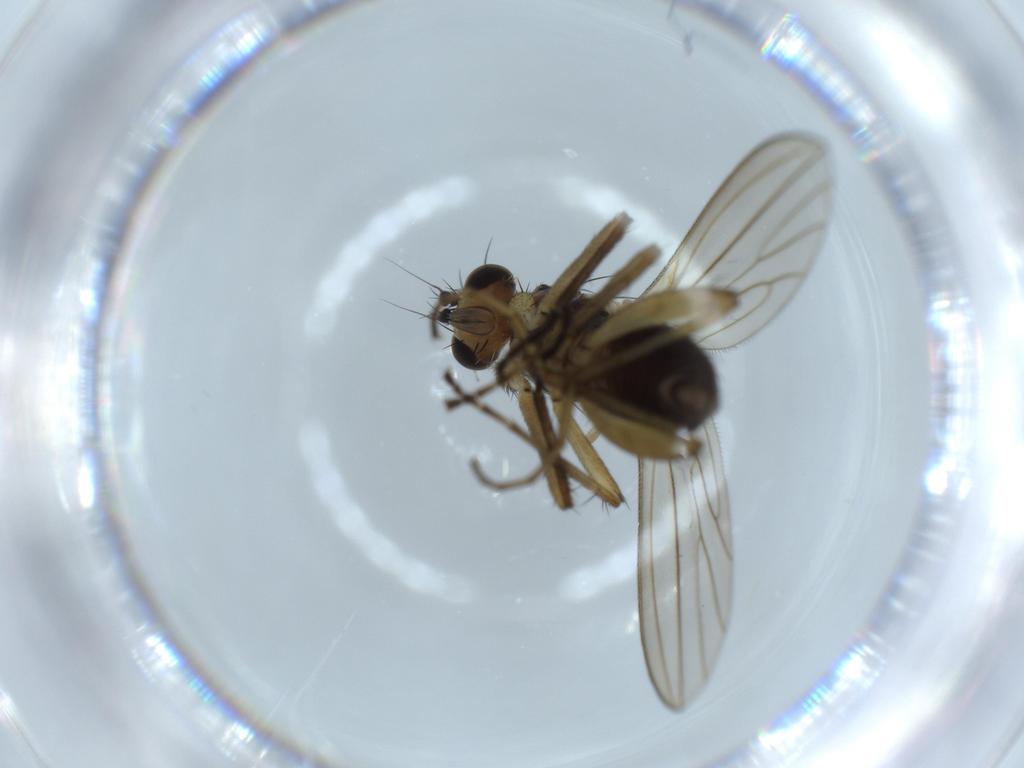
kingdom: Animalia
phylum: Arthropoda
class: Insecta
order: Diptera
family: Lonchopteridae
